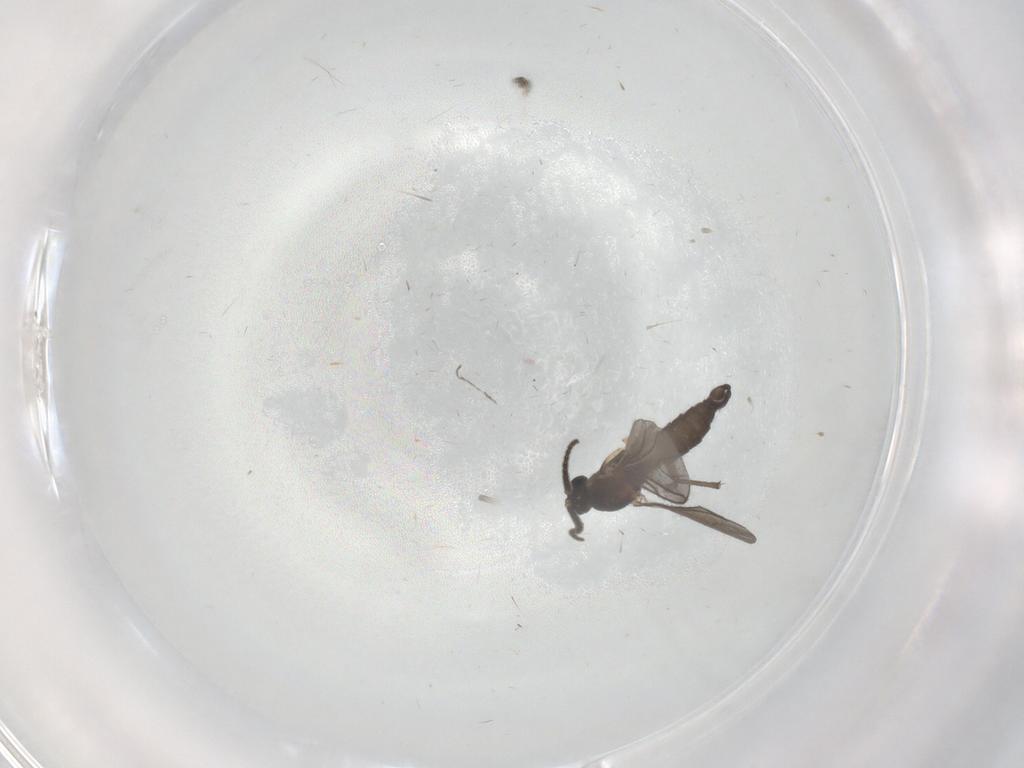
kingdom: Animalia
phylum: Arthropoda
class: Insecta
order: Diptera
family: Sciaridae
